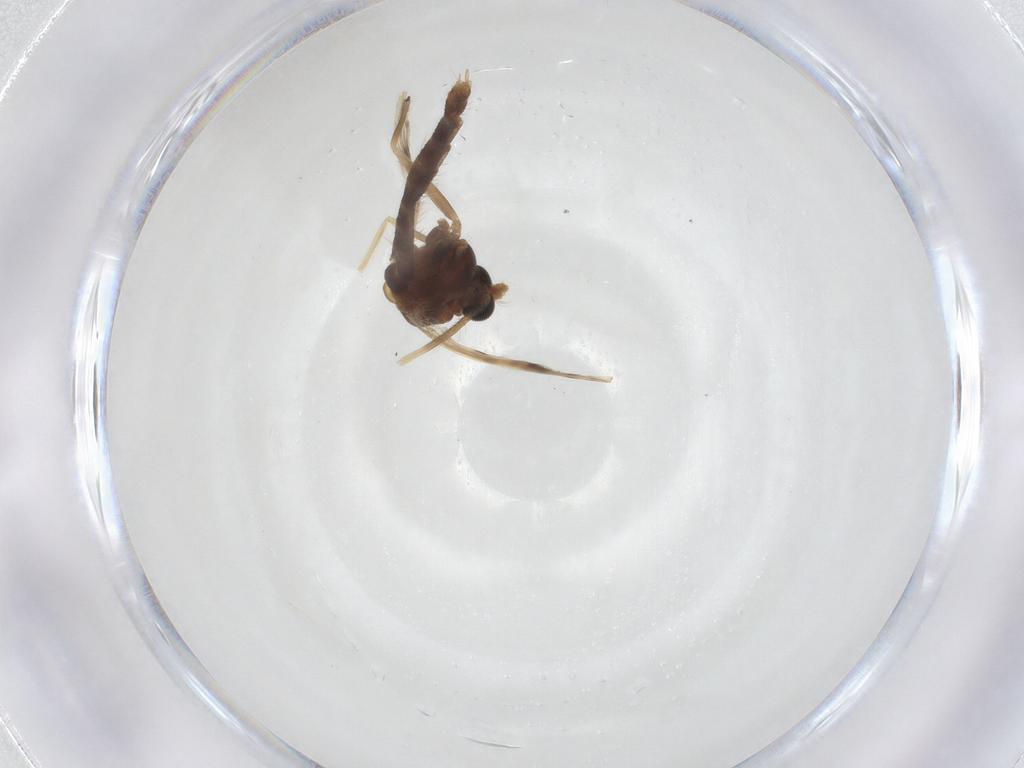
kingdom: Animalia
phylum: Arthropoda
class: Insecta
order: Diptera
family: Chironomidae
